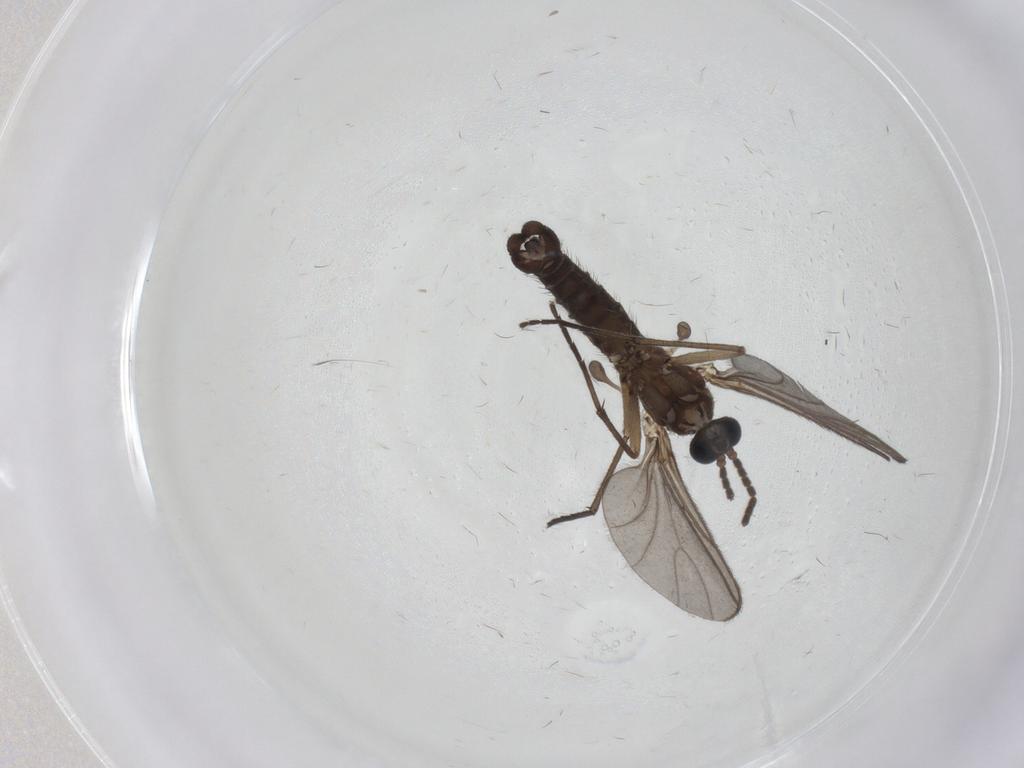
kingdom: Animalia
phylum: Arthropoda
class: Insecta
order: Diptera
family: Sciaridae
